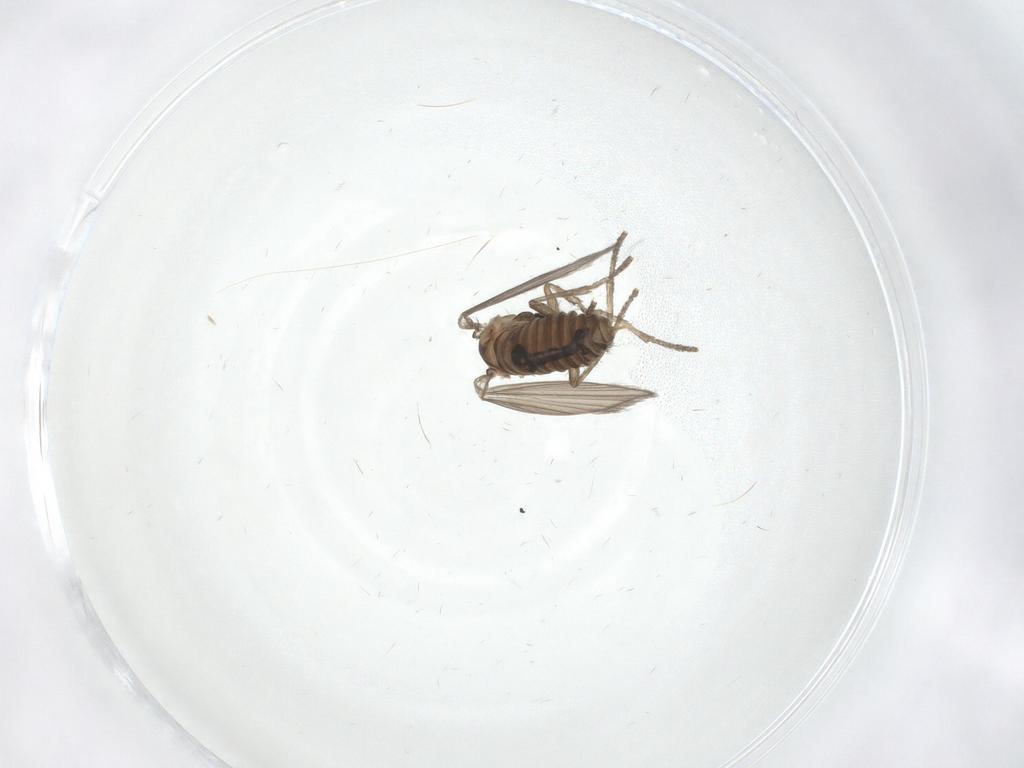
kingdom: Animalia
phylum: Arthropoda
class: Insecta
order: Diptera
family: Psychodidae
